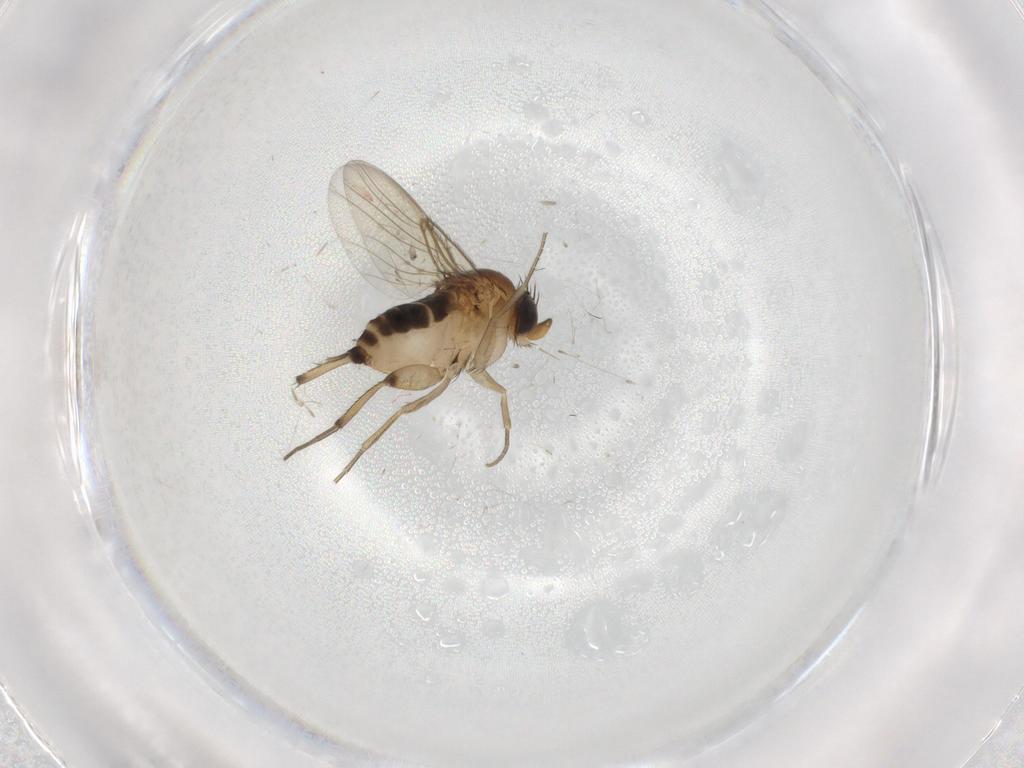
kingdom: Animalia
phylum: Arthropoda
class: Insecta
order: Diptera
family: Cecidomyiidae
